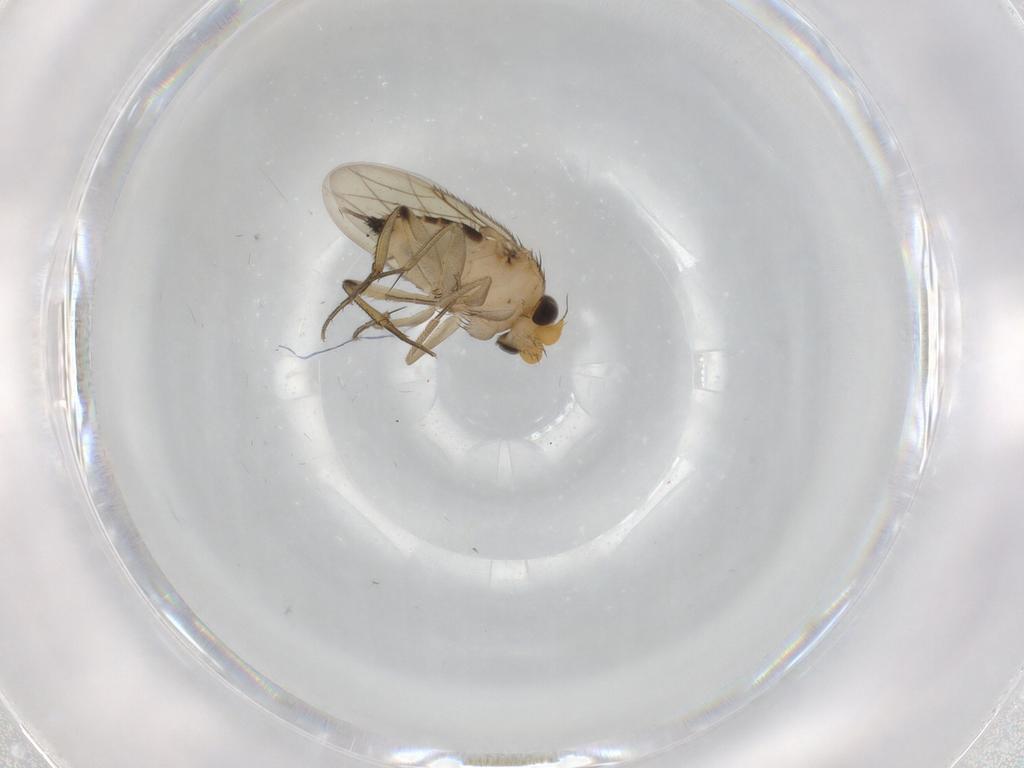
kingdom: Animalia
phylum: Arthropoda
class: Insecta
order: Diptera
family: Phoridae
